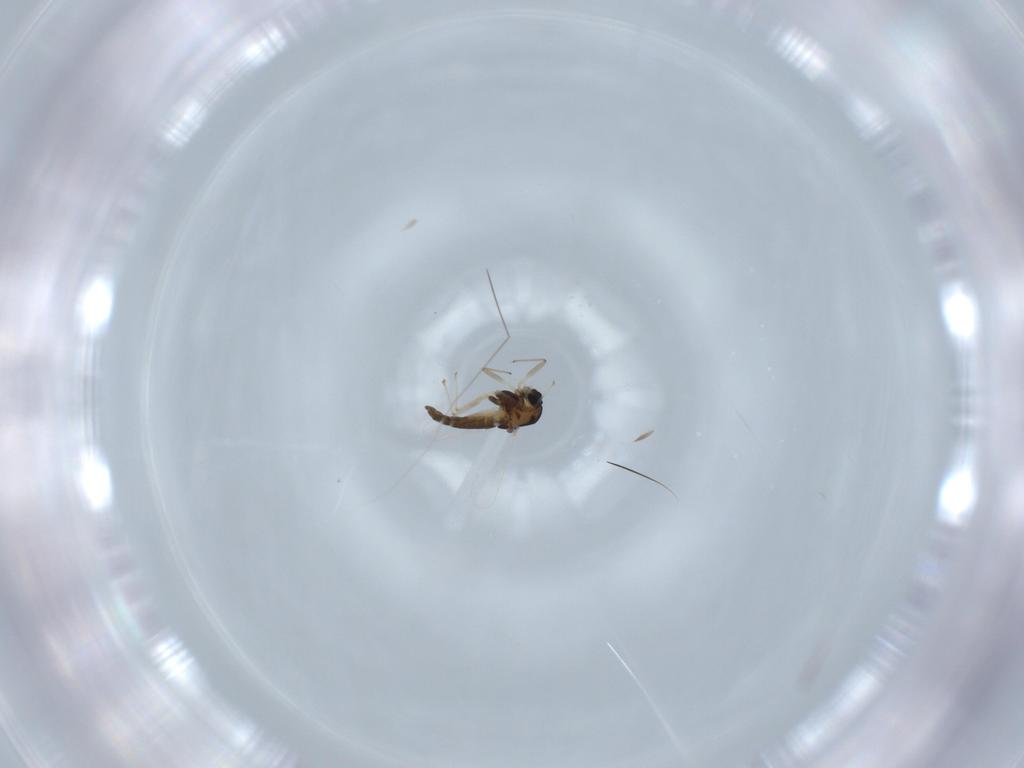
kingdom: Animalia
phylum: Arthropoda
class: Insecta
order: Diptera
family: Chironomidae
